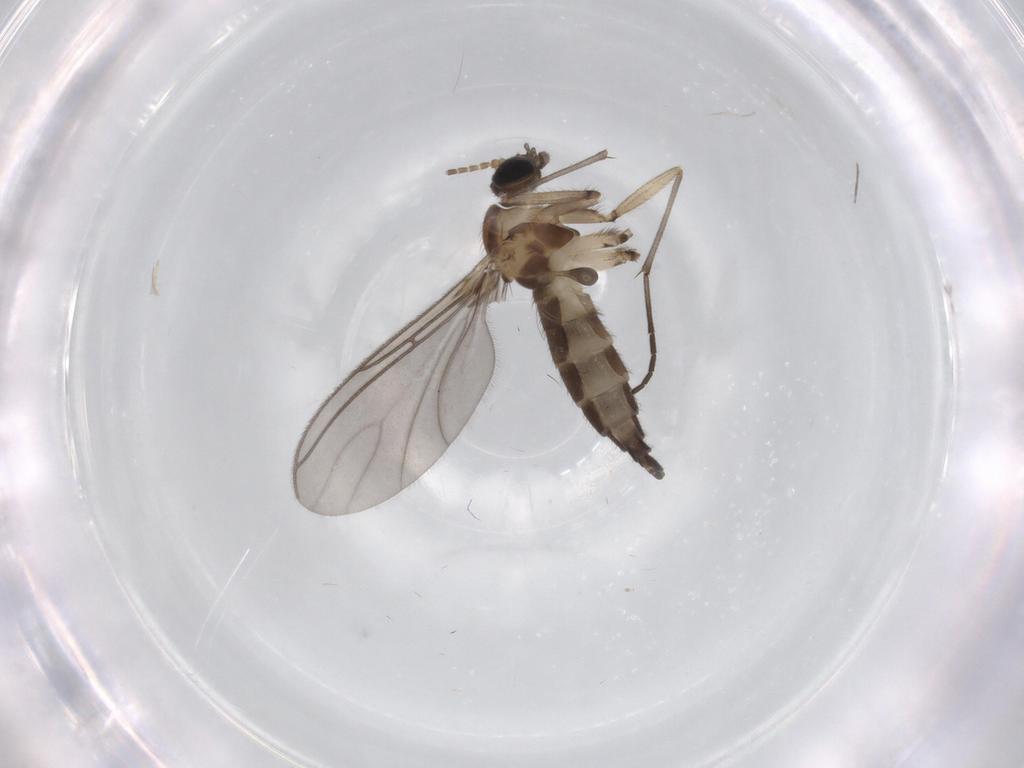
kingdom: Animalia
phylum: Arthropoda
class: Insecta
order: Diptera
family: Sciaridae
